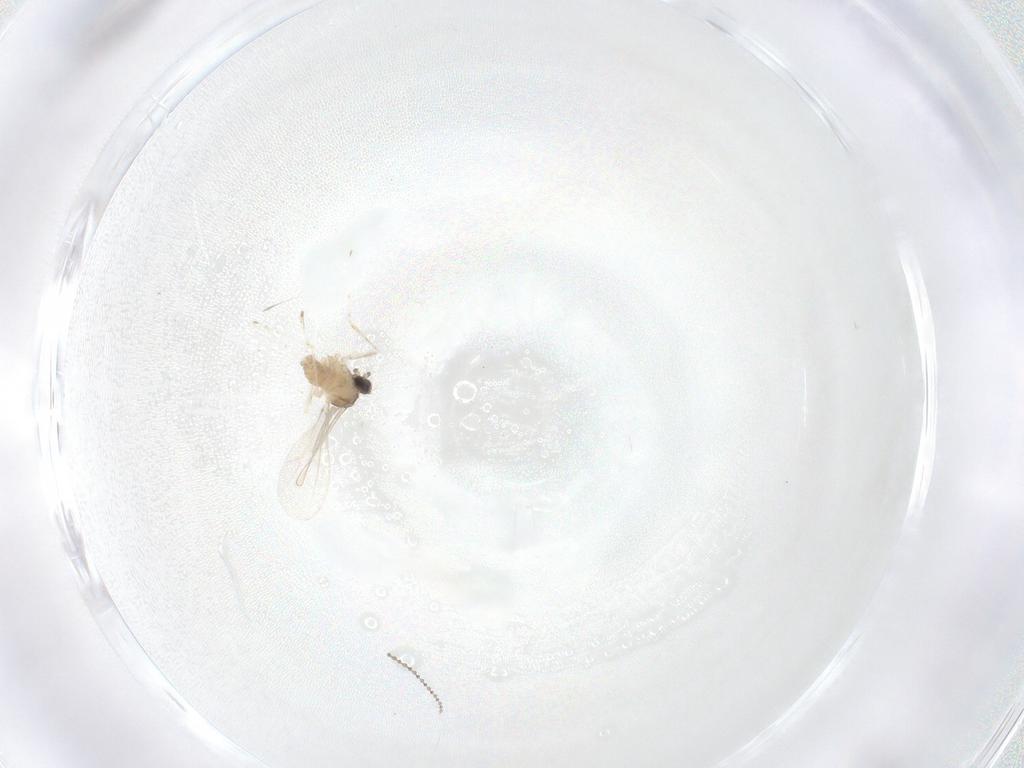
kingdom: Animalia
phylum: Arthropoda
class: Insecta
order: Diptera
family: Cecidomyiidae
